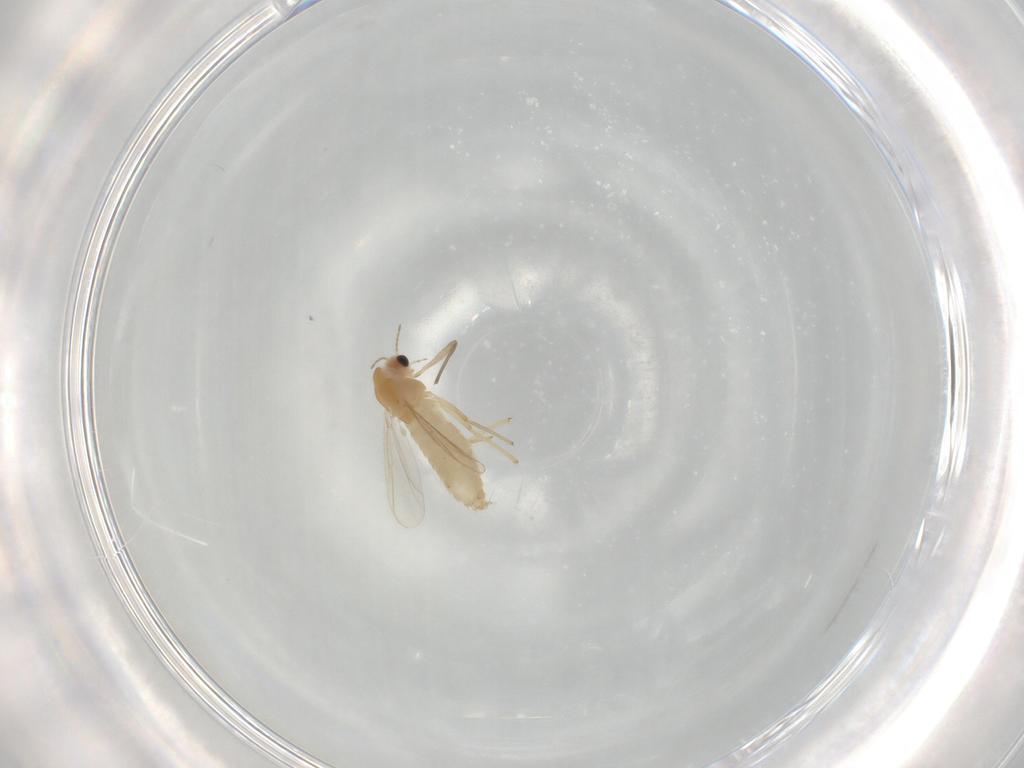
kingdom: Animalia
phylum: Arthropoda
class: Insecta
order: Diptera
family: Chironomidae
